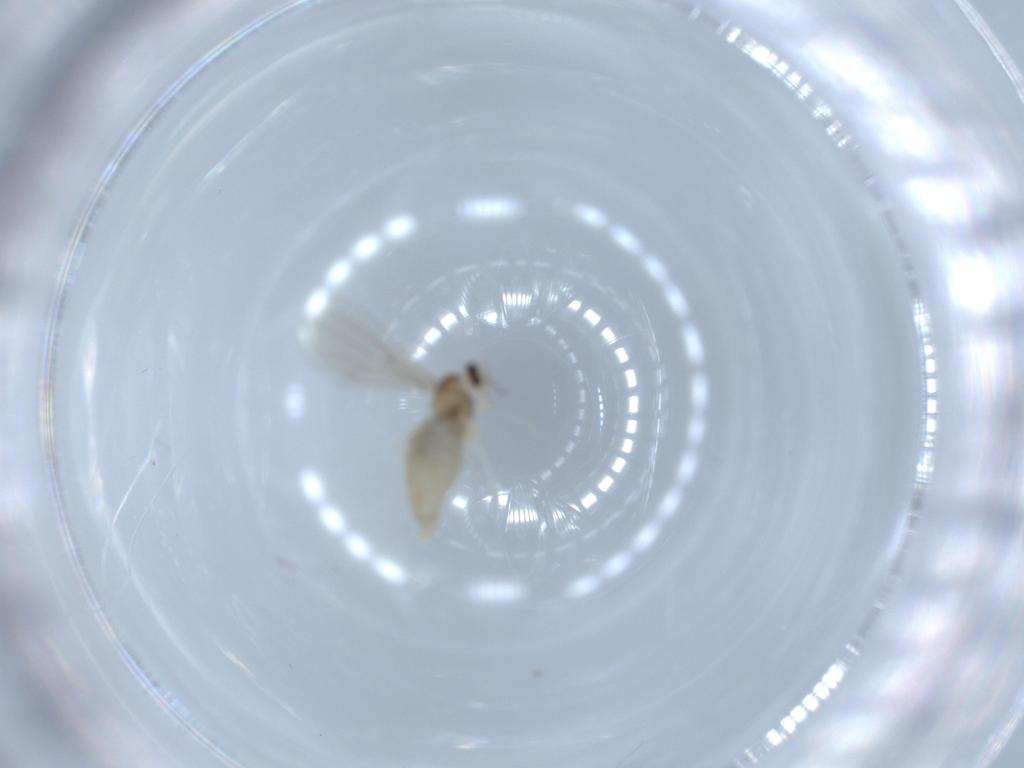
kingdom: Animalia
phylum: Arthropoda
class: Insecta
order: Diptera
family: Cecidomyiidae
